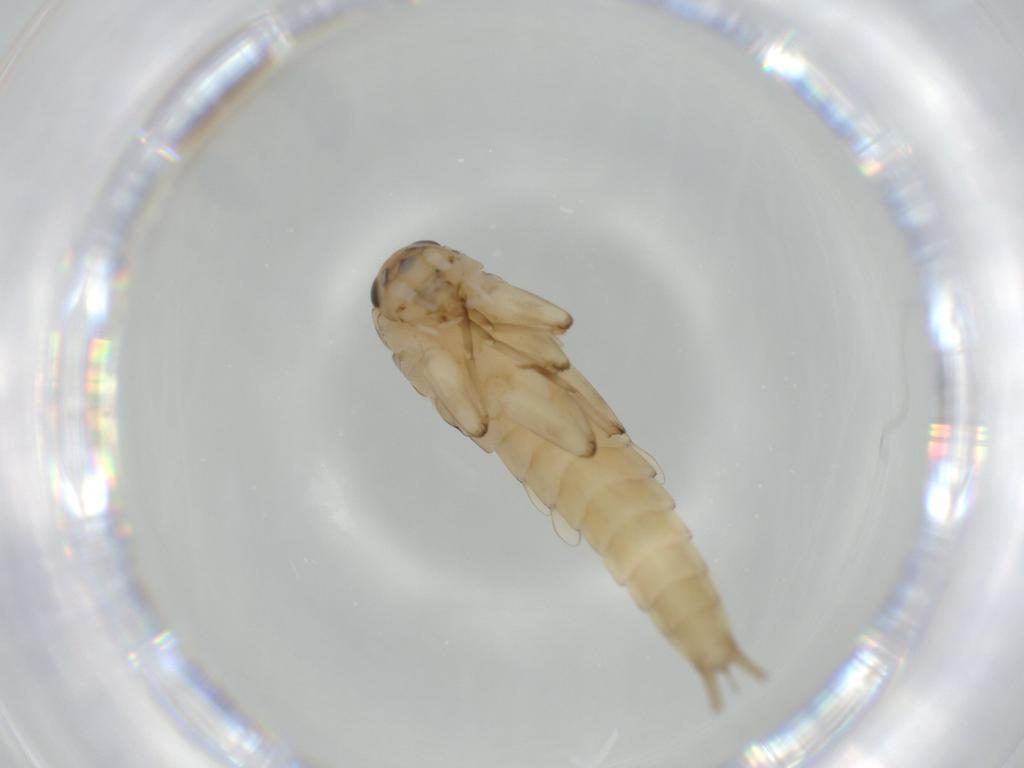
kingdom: Animalia
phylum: Arthropoda
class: Insecta
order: Ephemeroptera
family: Baetidae
